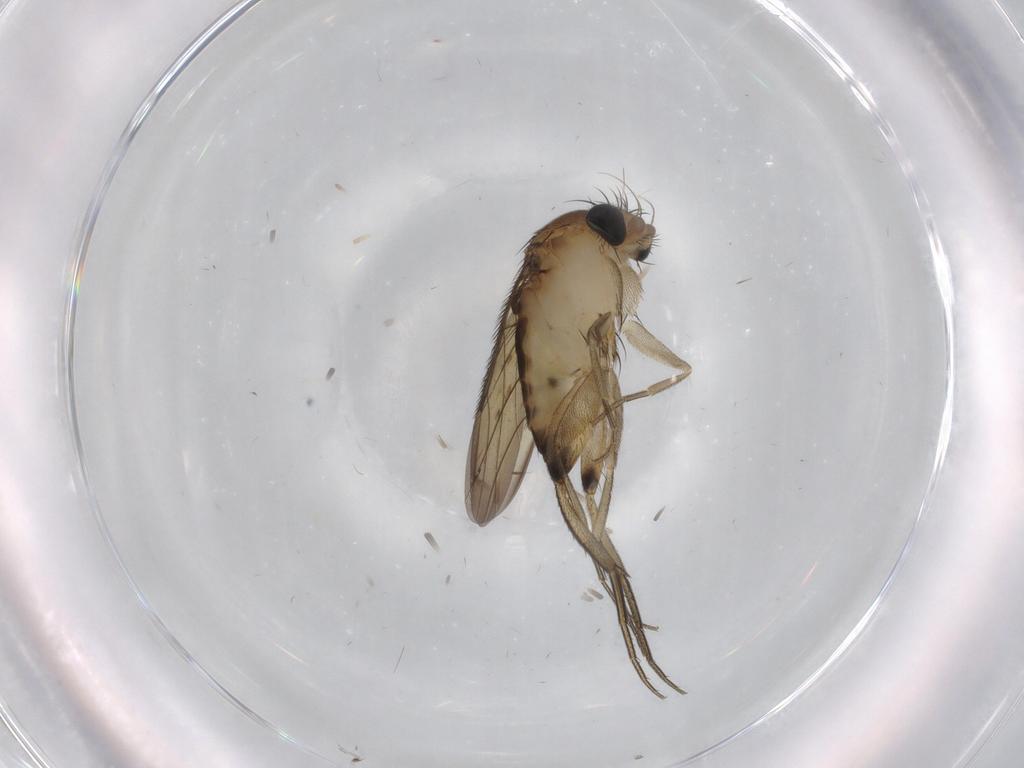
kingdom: Animalia
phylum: Arthropoda
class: Insecta
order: Diptera
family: Phoridae
